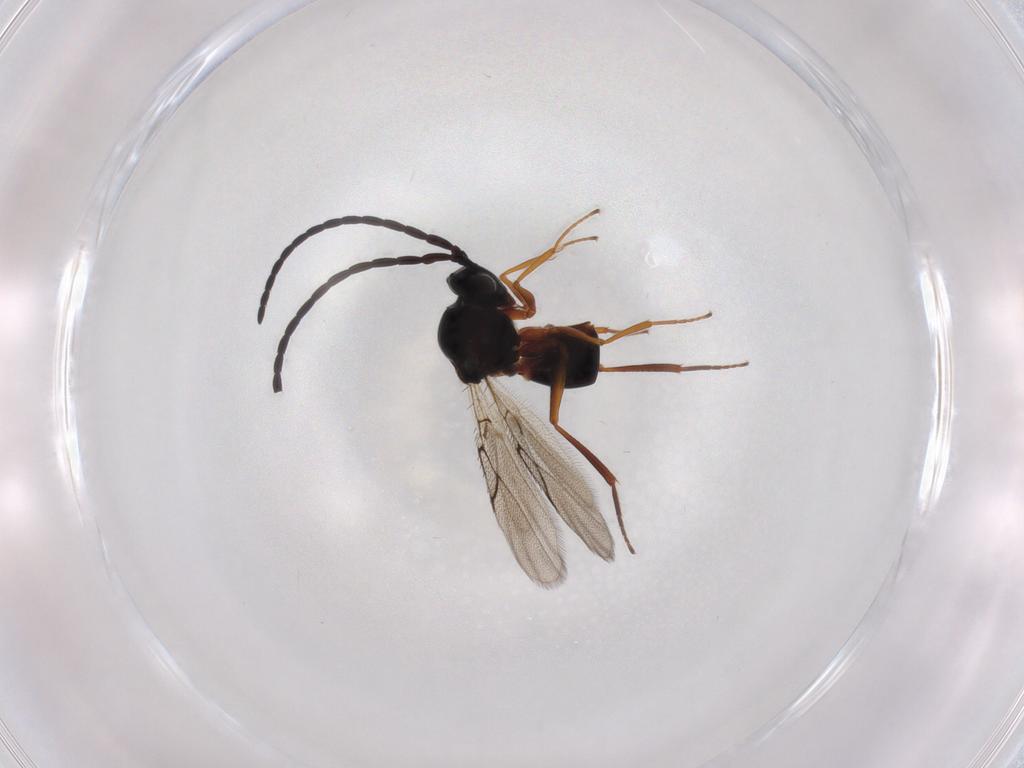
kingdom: Animalia
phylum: Arthropoda
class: Insecta
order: Hymenoptera
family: Figitidae
